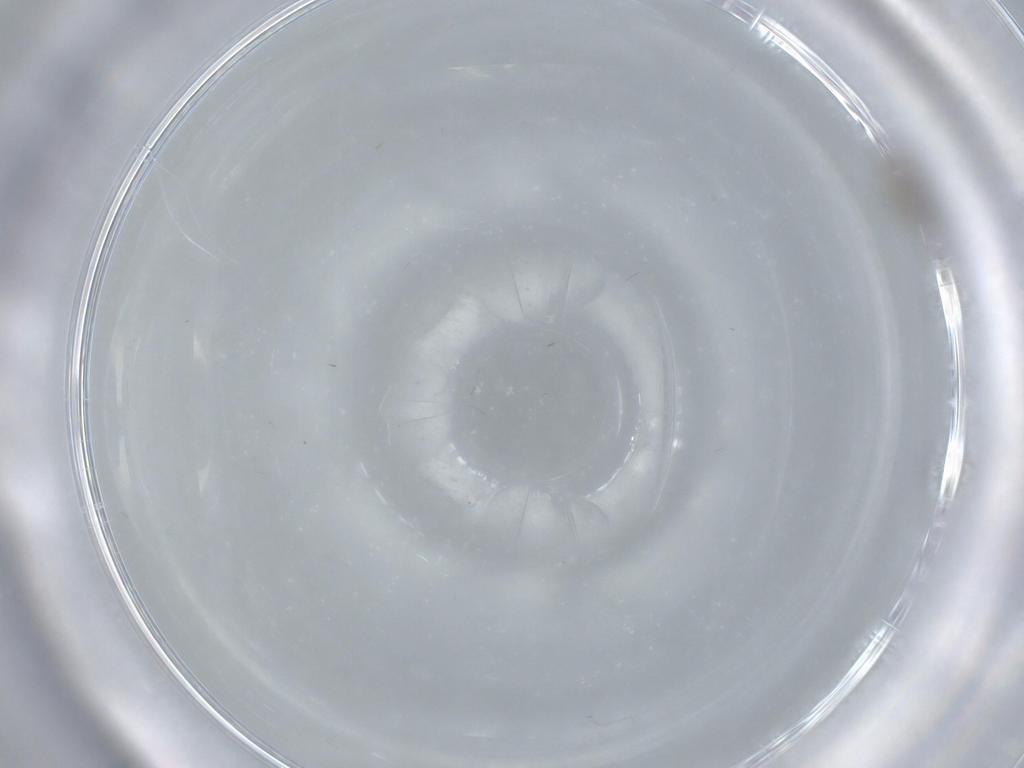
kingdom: Animalia
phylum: Arthropoda
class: Insecta
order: Diptera
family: Cecidomyiidae
